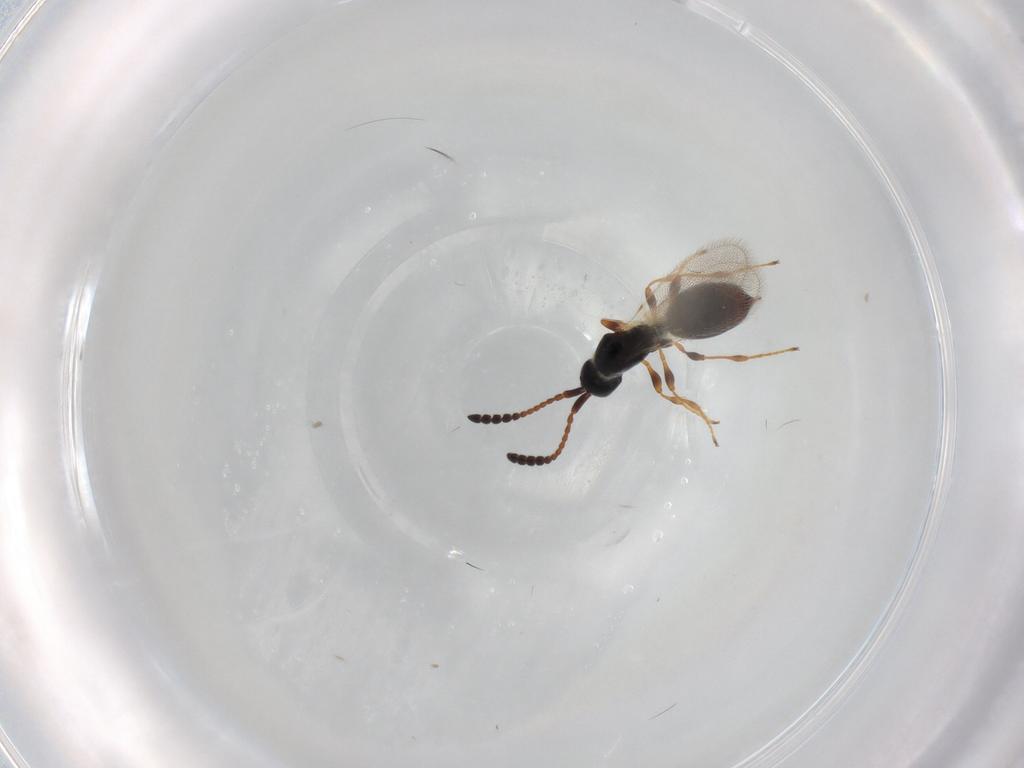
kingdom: Animalia
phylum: Arthropoda
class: Insecta
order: Hymenoptera
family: Diapriidae
